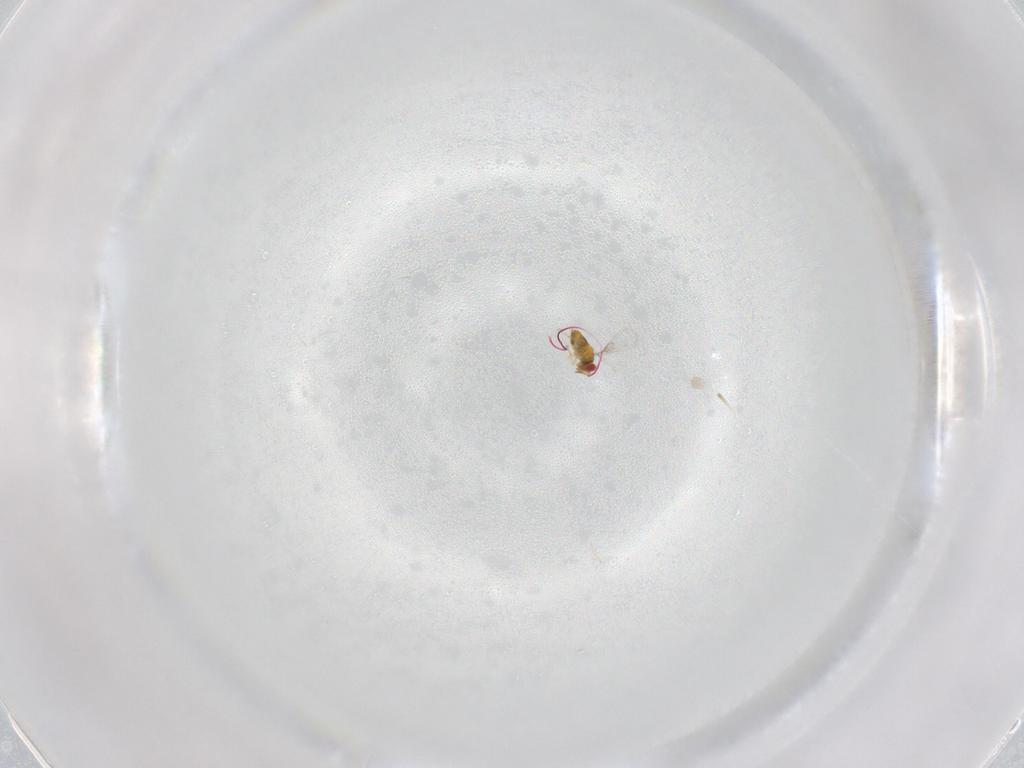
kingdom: Animalia
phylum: Arthropoda
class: Insecta
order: Hymenoptera
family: Trichogrammatidae
